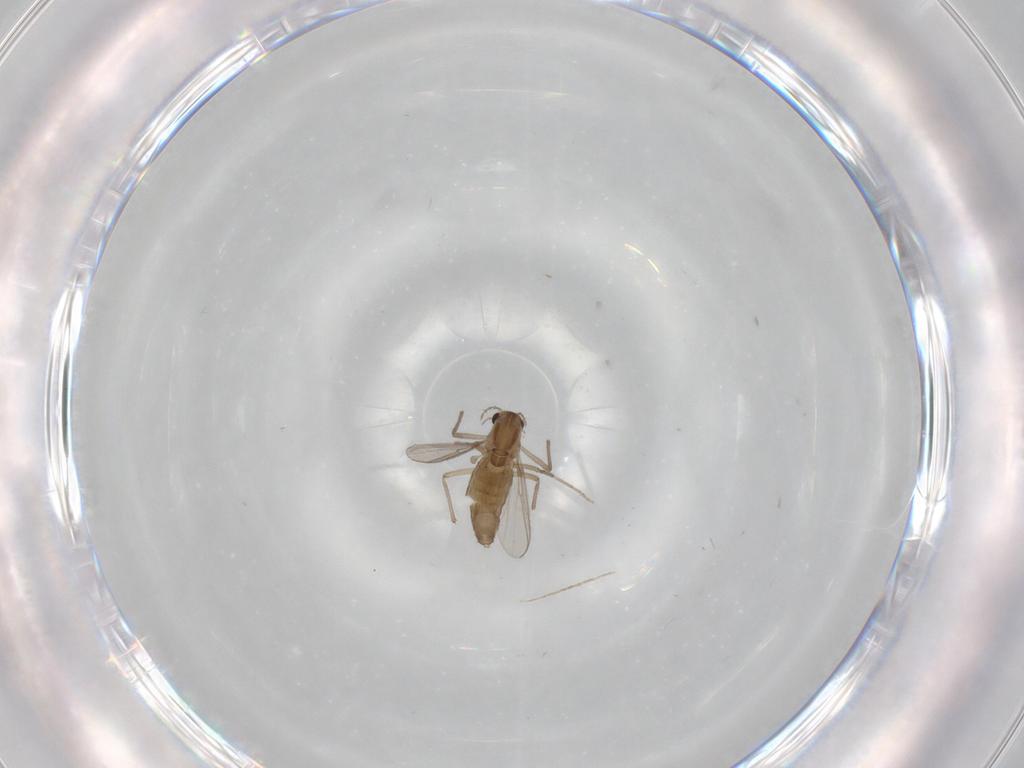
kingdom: Animalia
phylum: Arthropoda
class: Insecta
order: Diptera
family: Chironomidae
